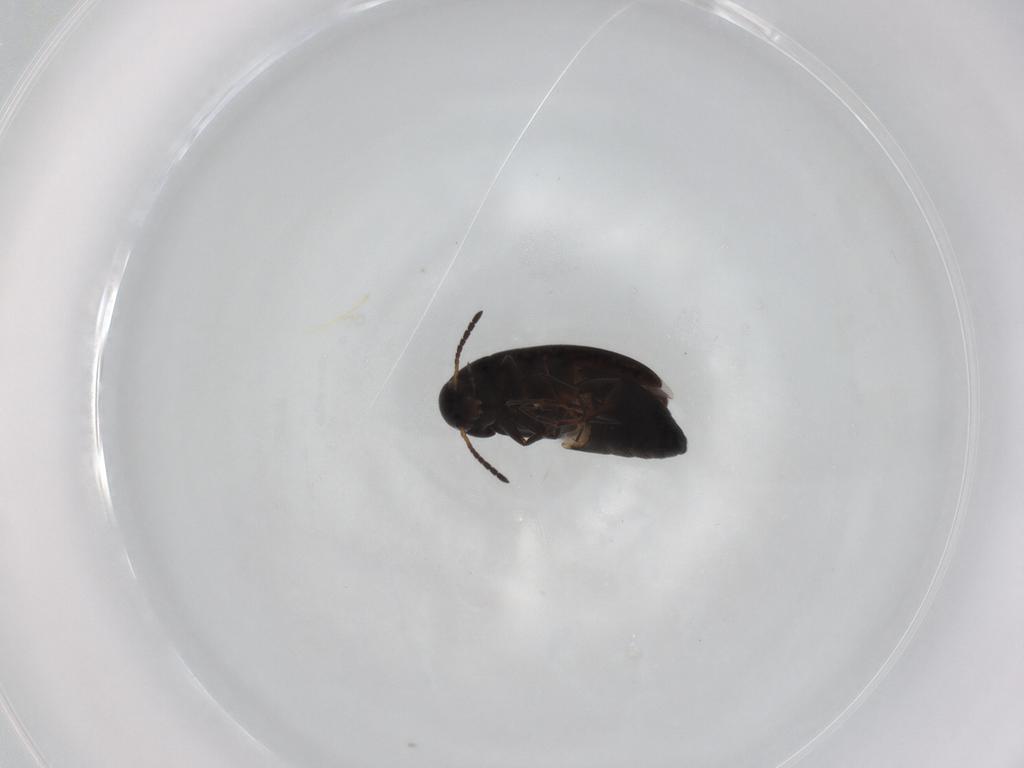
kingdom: Animalia
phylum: Arthropoda
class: Insecta
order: Coleoptera
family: Scraptiidae
